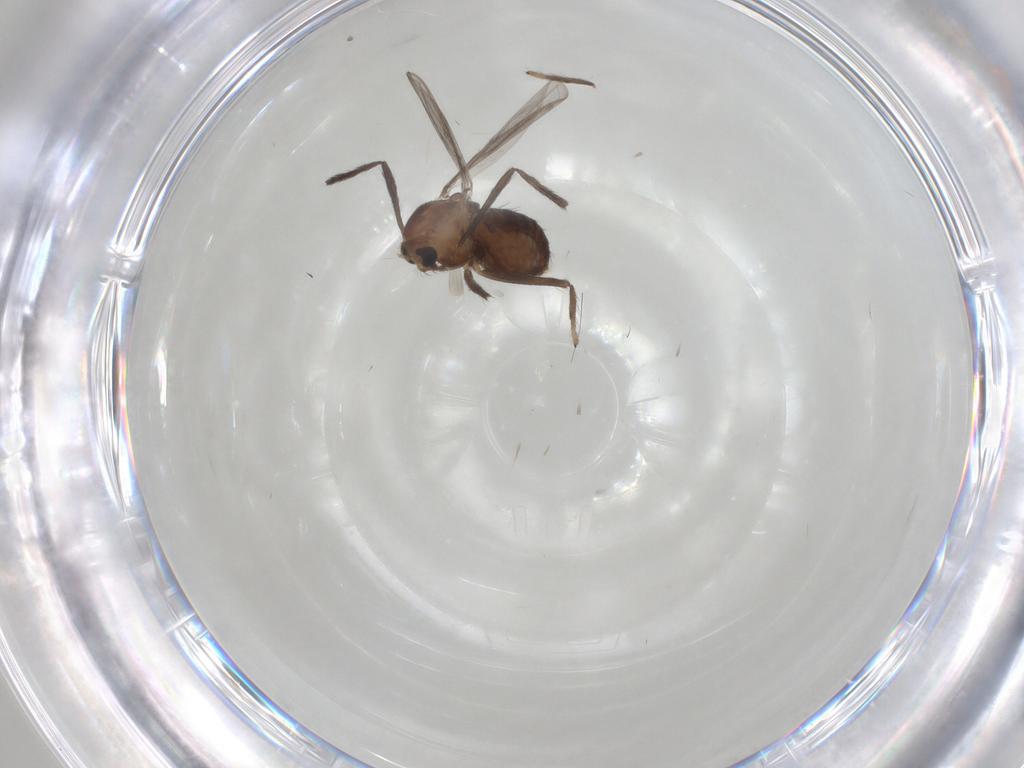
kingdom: Animalia
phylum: Arthropoda
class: Insecta
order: Diptera
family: Chironomidae
